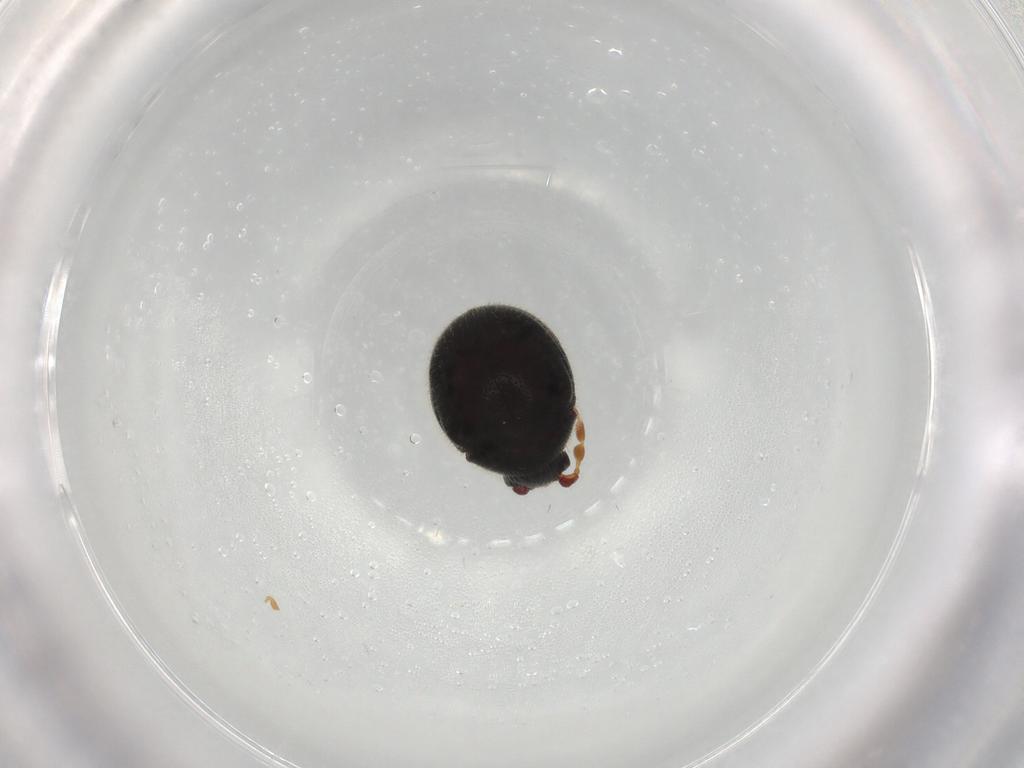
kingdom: Animalia
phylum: Arthropoda
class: Insecta
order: Coleoptera
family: Ptinidae
